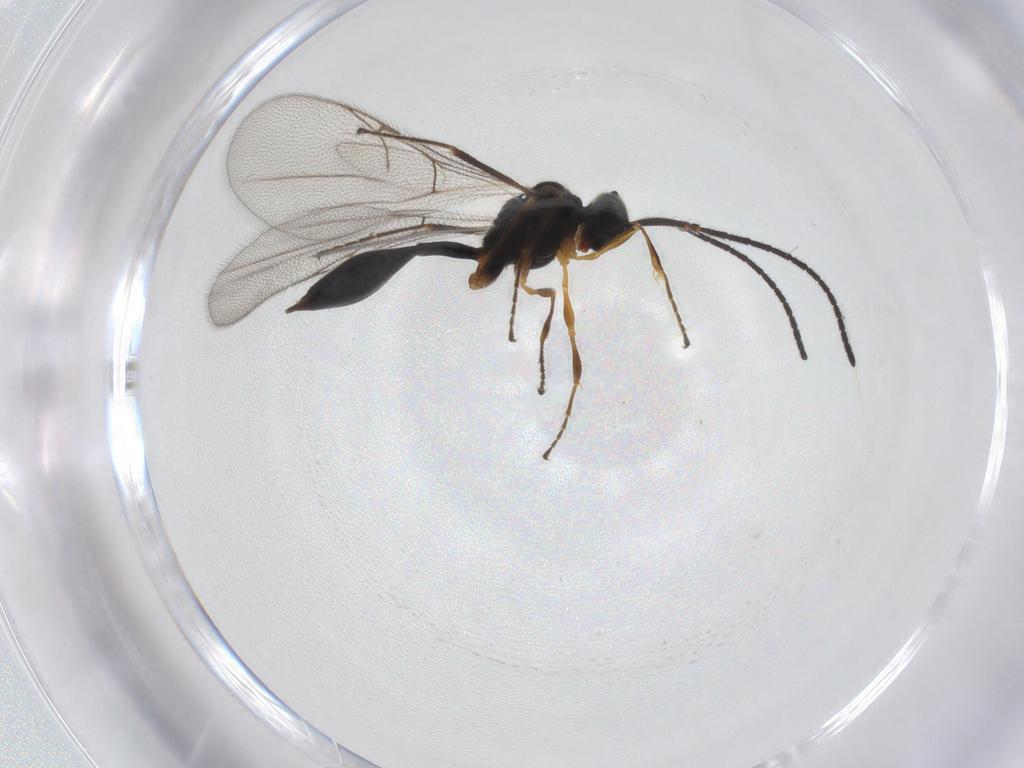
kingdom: Animalia
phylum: Arthropoda
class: Insecta
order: Hymenoptera
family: Diapriidae
